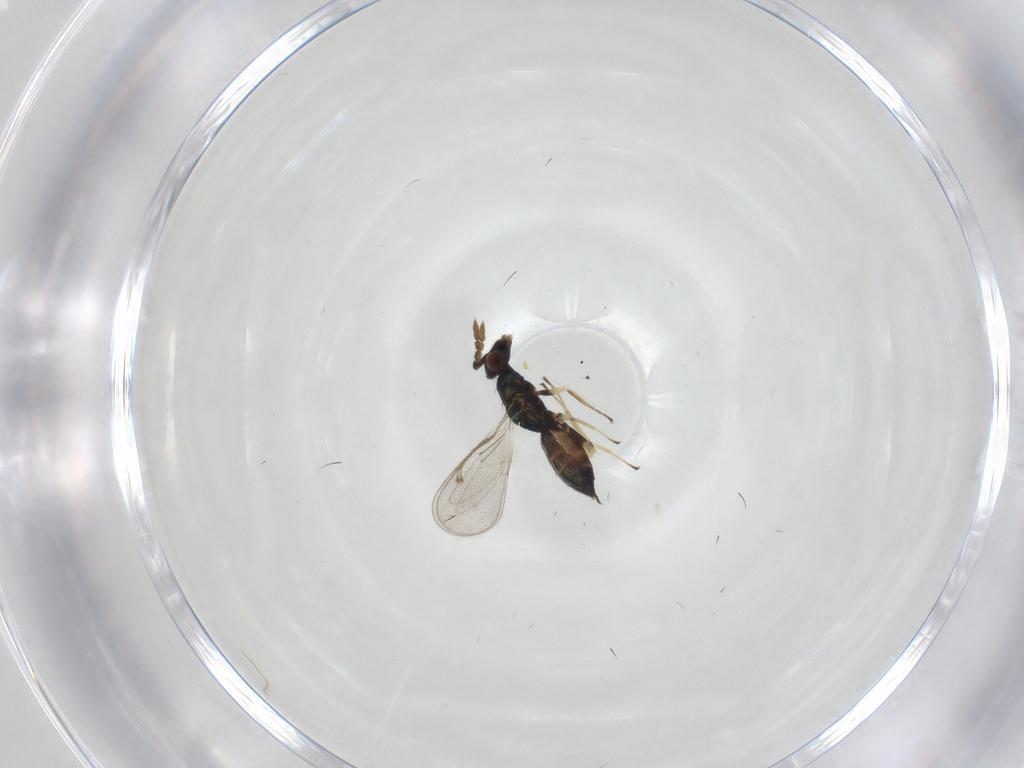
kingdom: Animalia
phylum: Arthropoda
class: Insecta
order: Hymenoptera
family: Eulophidae
